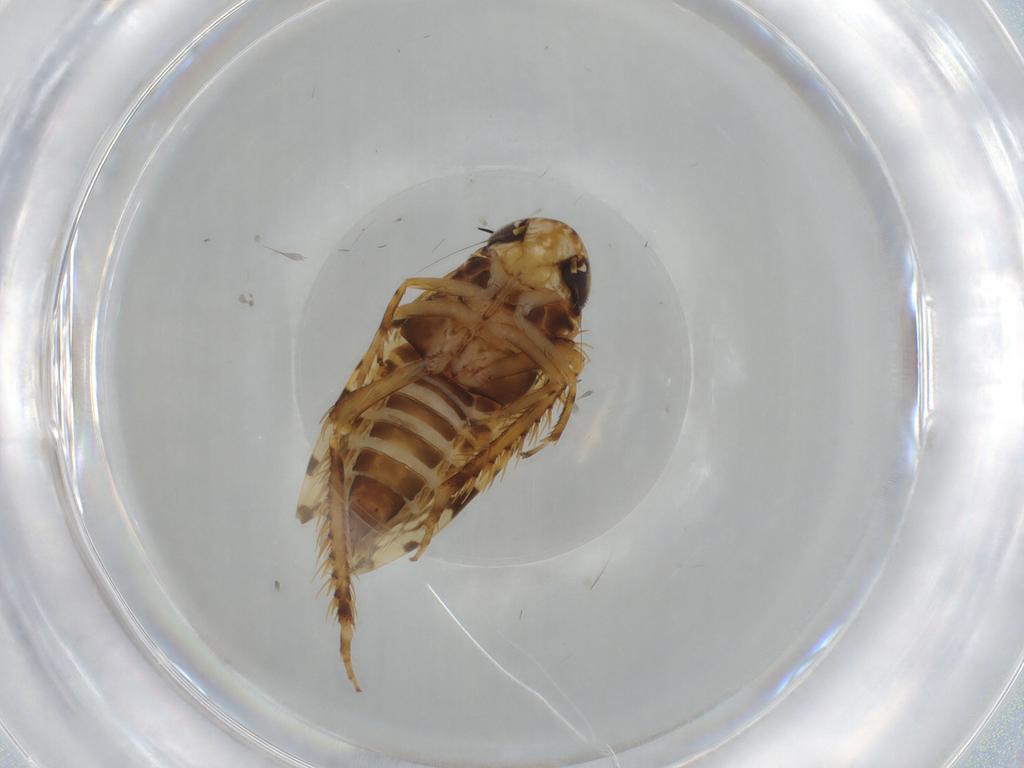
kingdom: Animalia
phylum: Arthropoda
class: Insecta
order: Hemiptera
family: Cicadellidae
